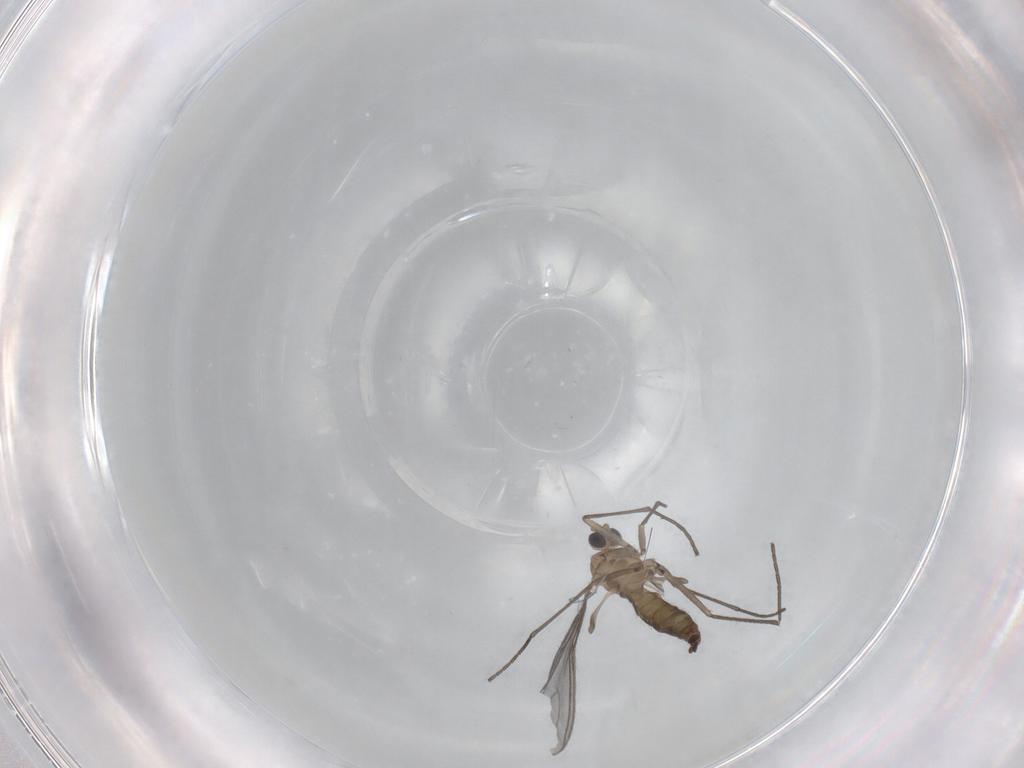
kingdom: Animalia
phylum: Arthropoda
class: Insecta
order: Diptera
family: Sciaridae
